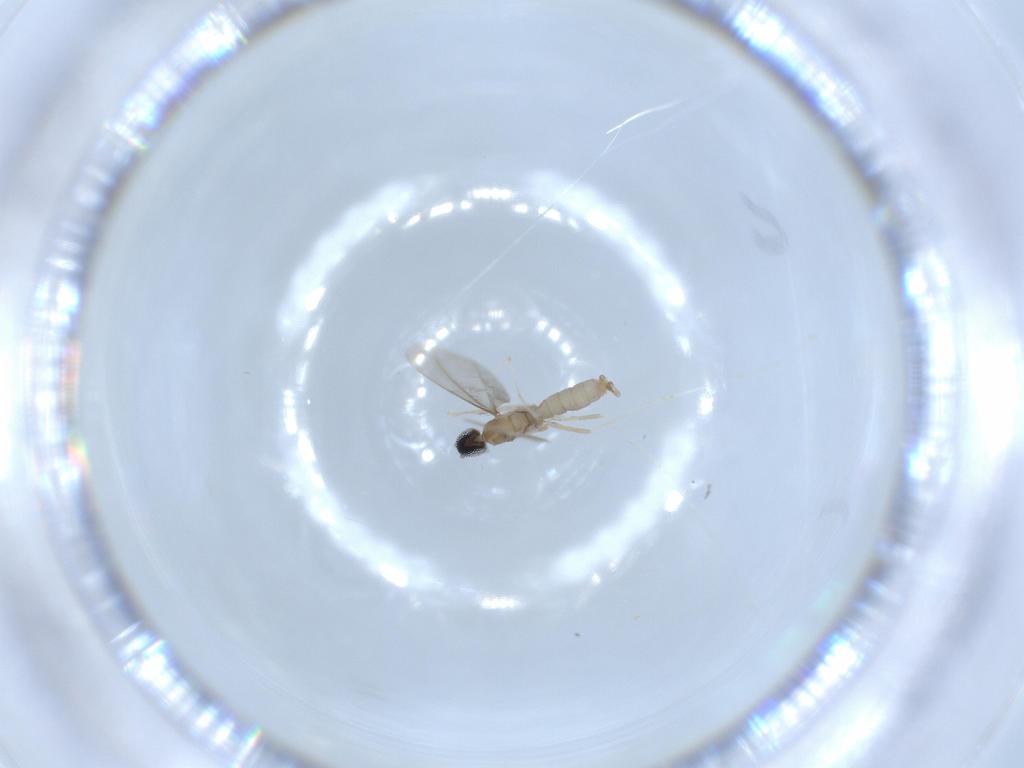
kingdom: Animalia
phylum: Arthropoda
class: Insecta
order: Diptera
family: Cecidomyiidae
